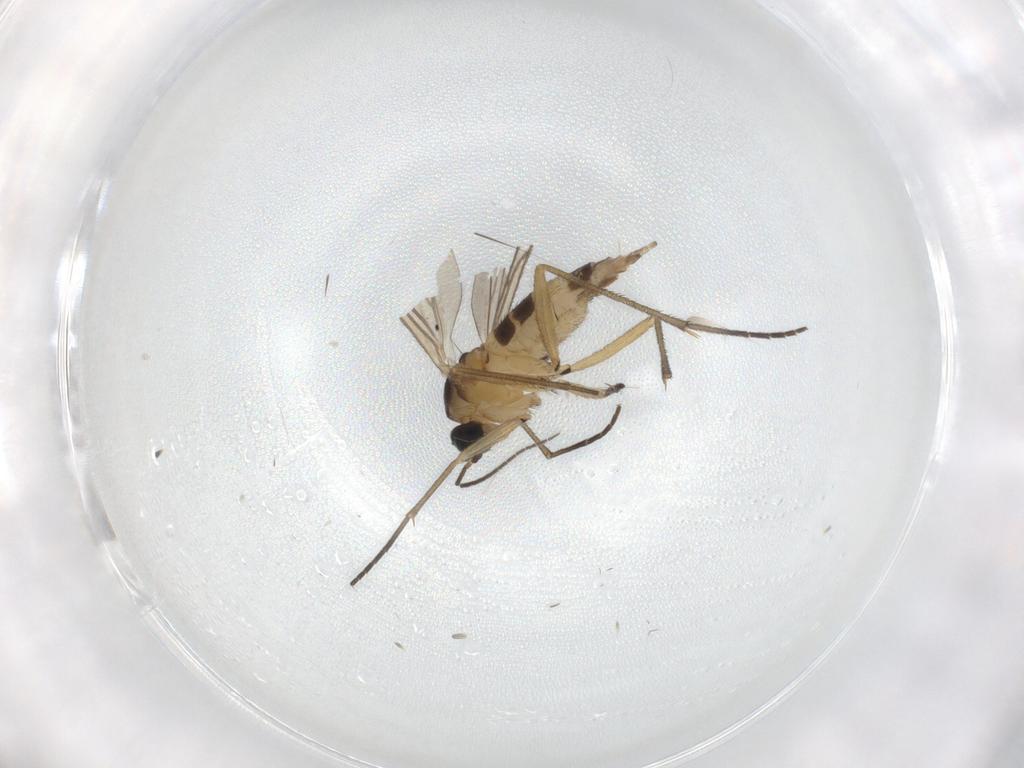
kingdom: Animalia
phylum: Arthropoda
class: Insecta
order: Diptera
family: Sciaridae
